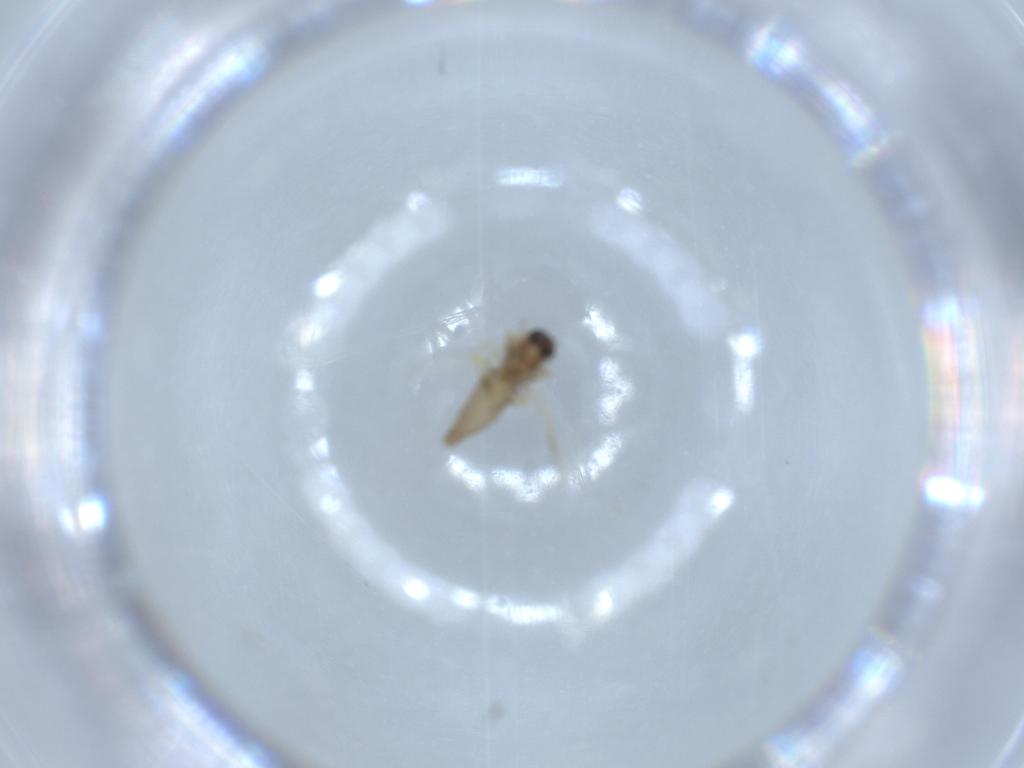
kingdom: Animalia
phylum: Arthropoda
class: Insecta
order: Diptera
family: Ceratopogonidae
